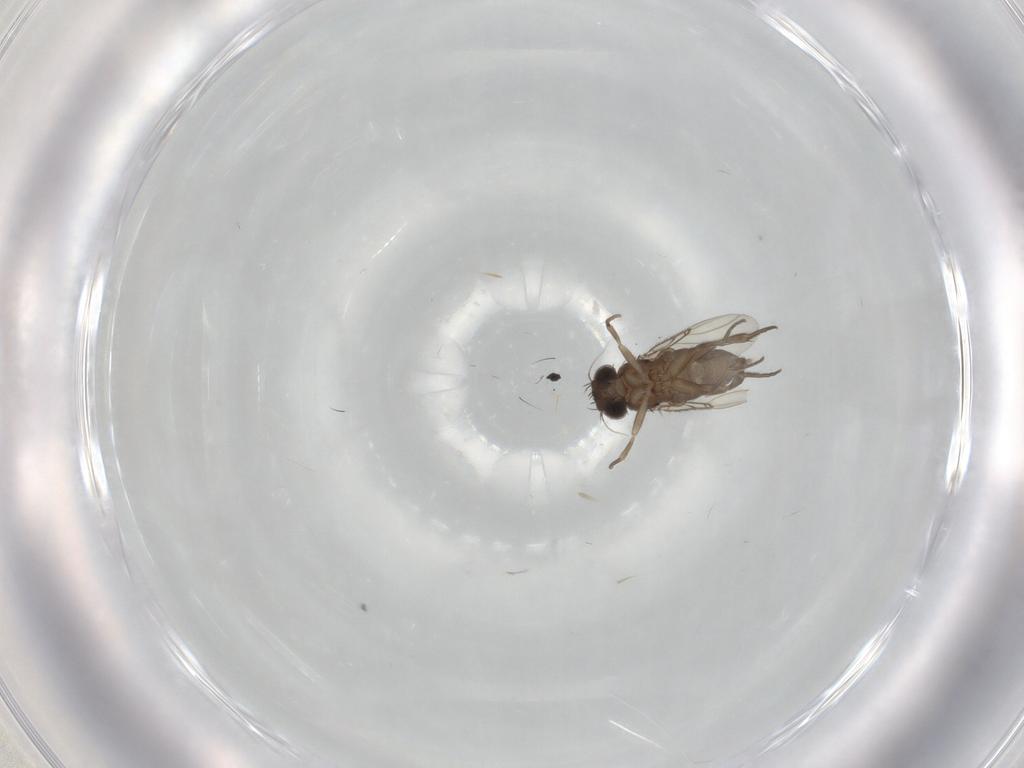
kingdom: Animalia
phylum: Arthropoda
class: Insecta
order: Diptera
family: Phoridae
